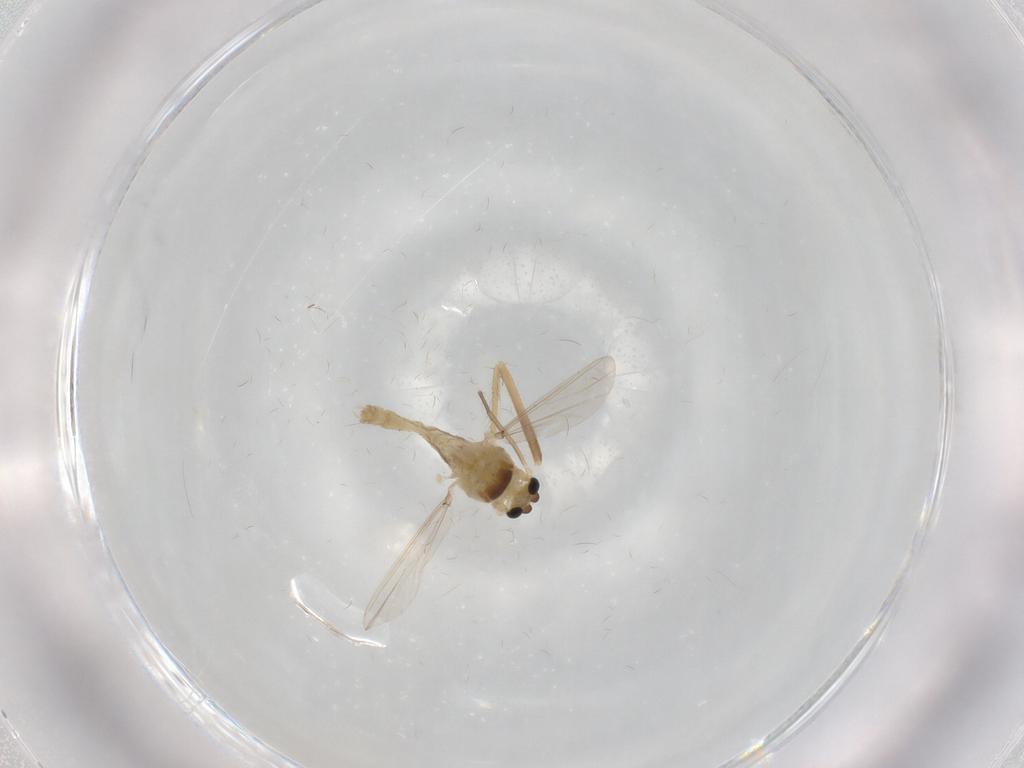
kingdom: Animalia
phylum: Arthropoda
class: Insecta
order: Diptera
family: Chironomidae
